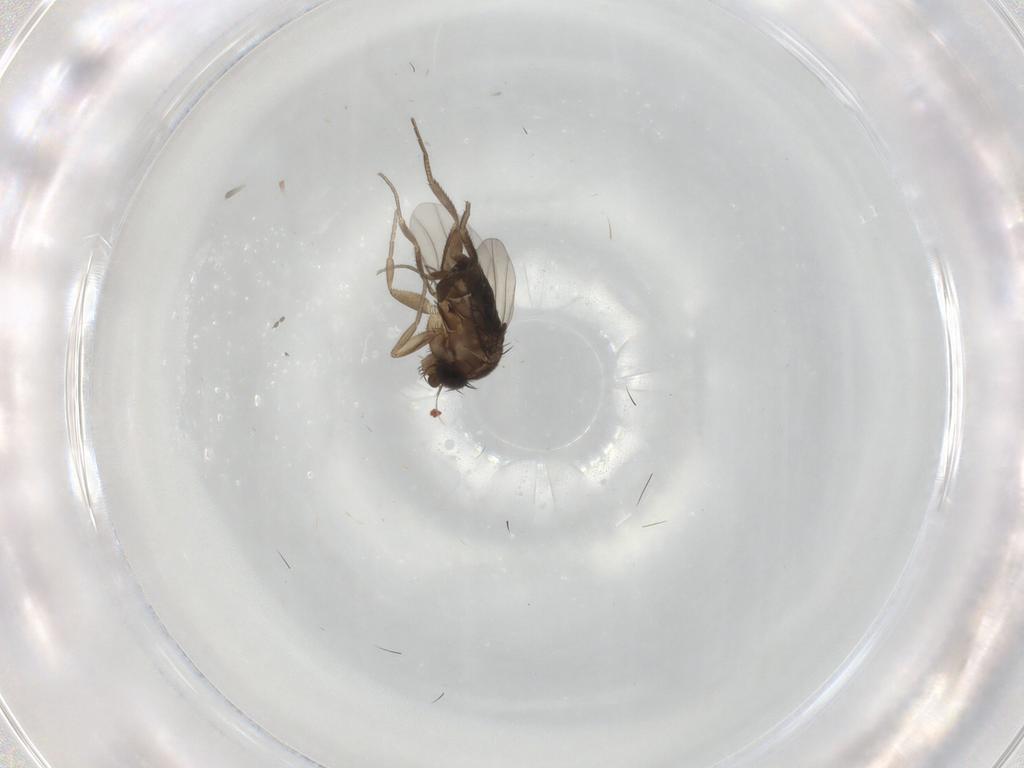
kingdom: Animalia
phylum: Arthropoda
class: Insecta
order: Diptera
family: Phoridae
